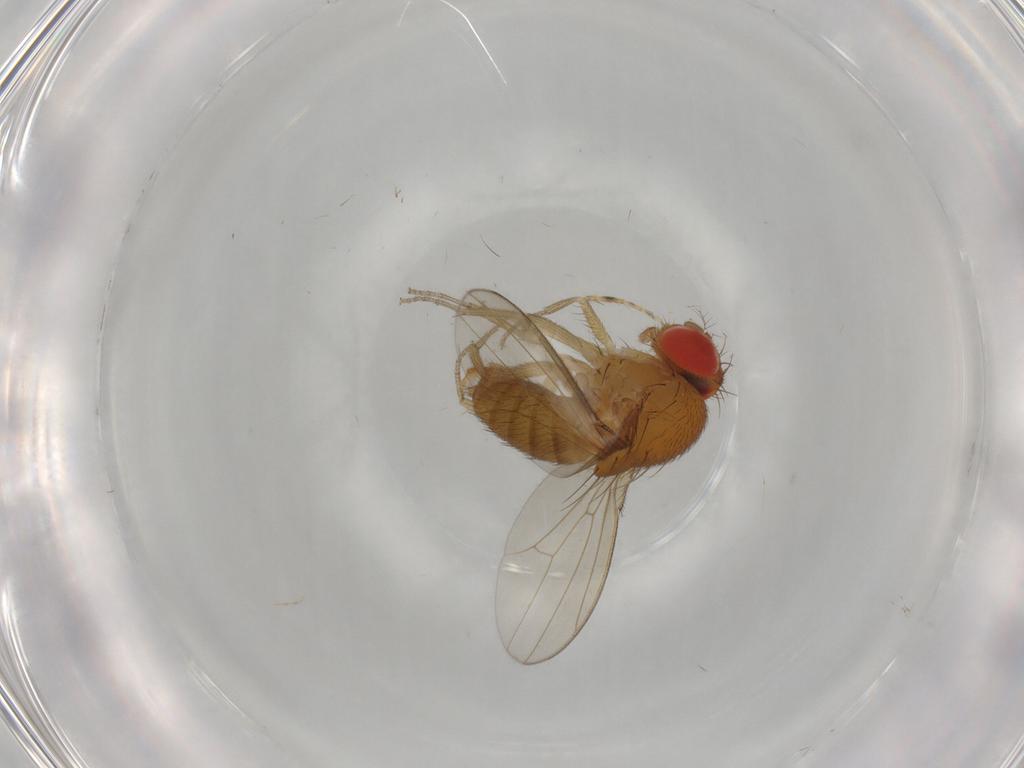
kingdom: Animalia
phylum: Arthropoda
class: Insecta
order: Diptera
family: Drosophilidae
